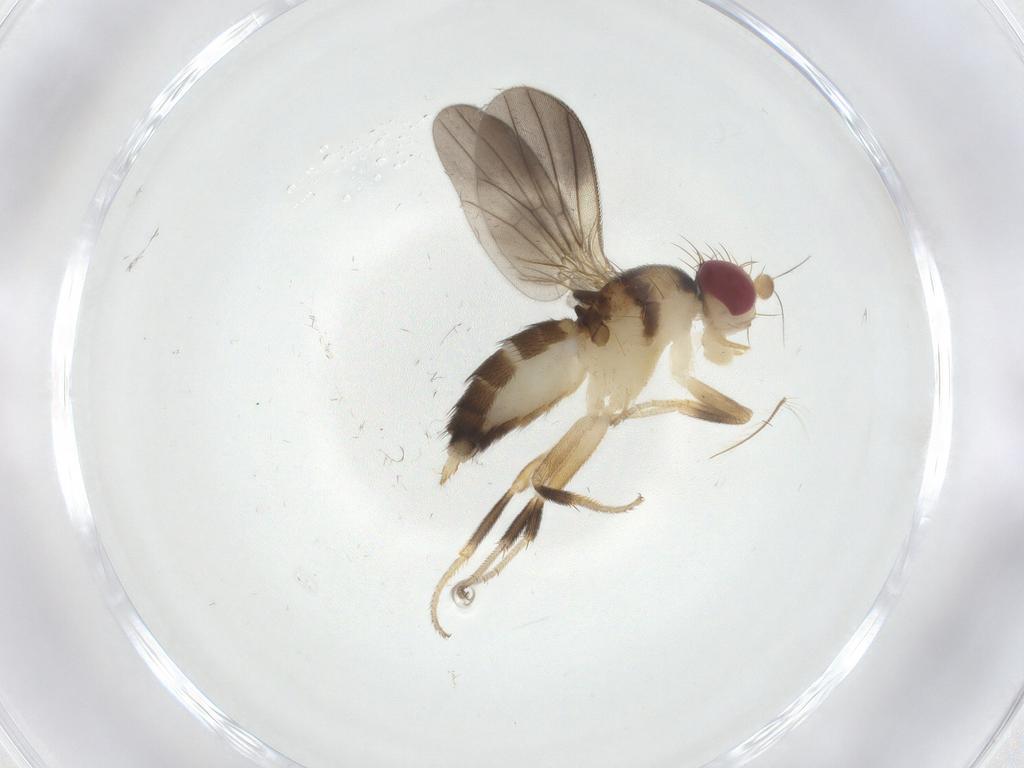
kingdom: Animalia
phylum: Arthropoda
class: Insecta
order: Diptera
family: Clusiidae
